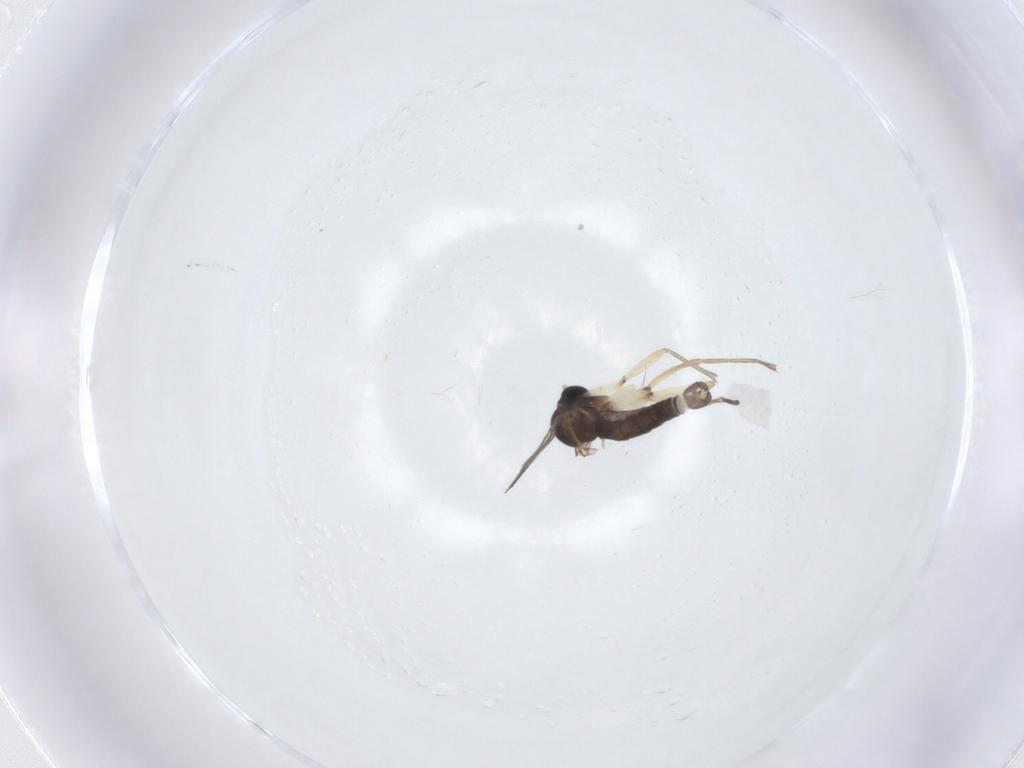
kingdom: Animalia
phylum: Arthropoda
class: Insecta
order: Diptera
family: Sciaridae
